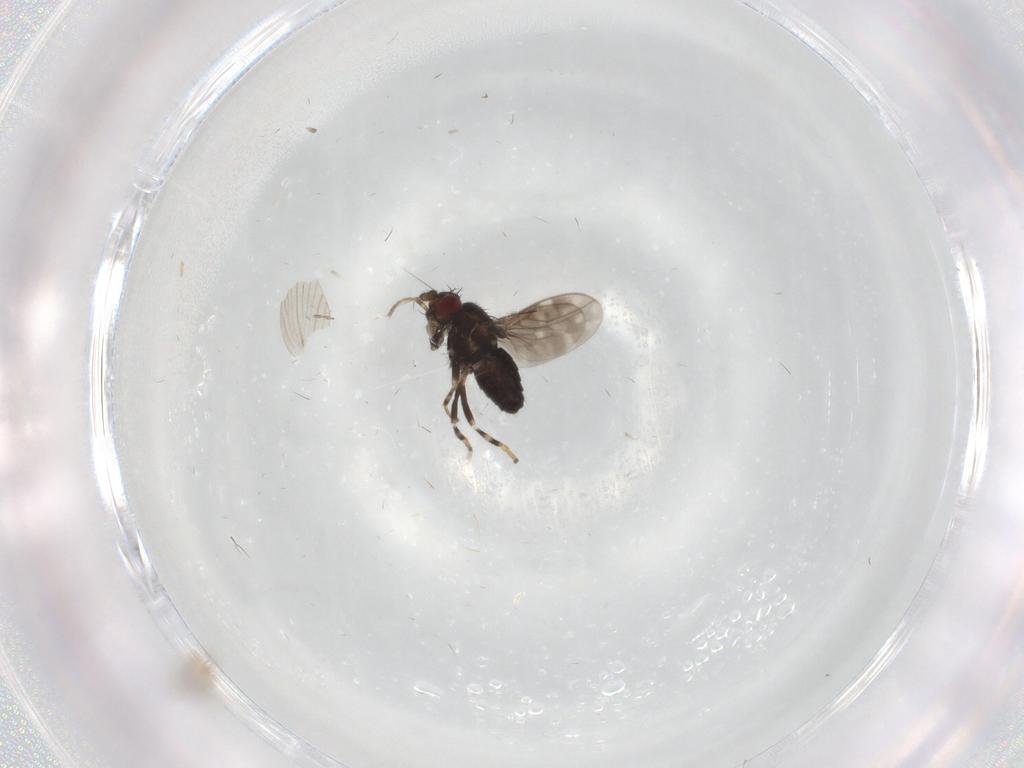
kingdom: Animalia
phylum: Arthropoda
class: Insecta
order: Diptera
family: Sphaeroceridae
